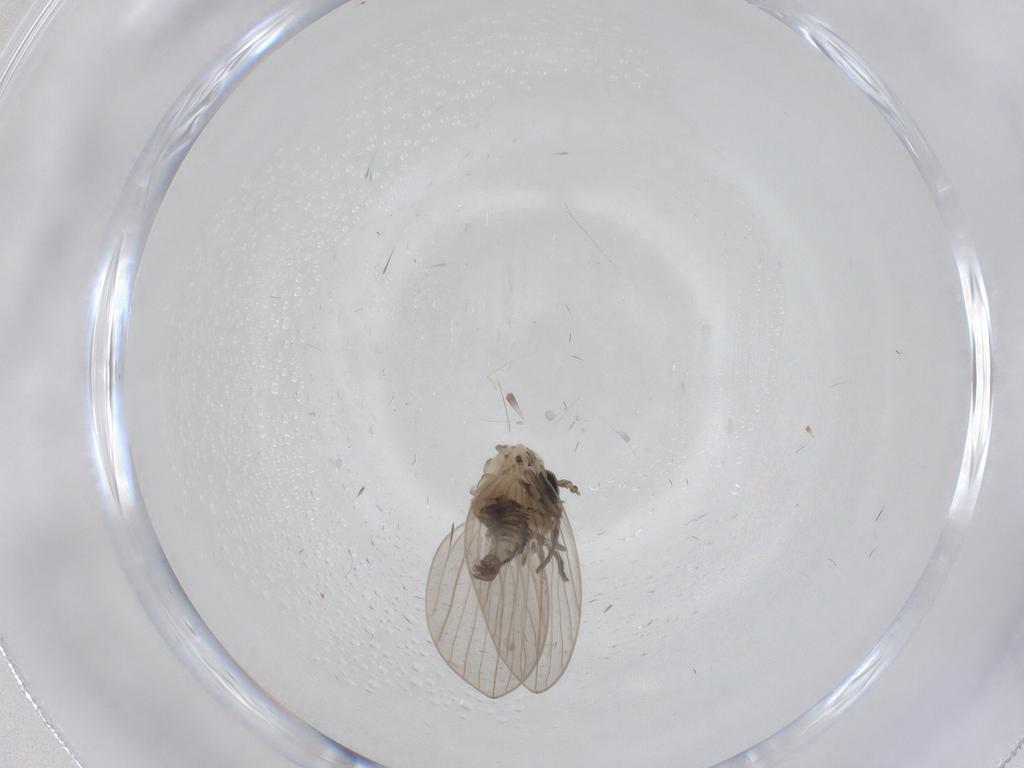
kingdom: Animalia
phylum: Arthropoda
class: Insecta
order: Diptera
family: Psychodidae
